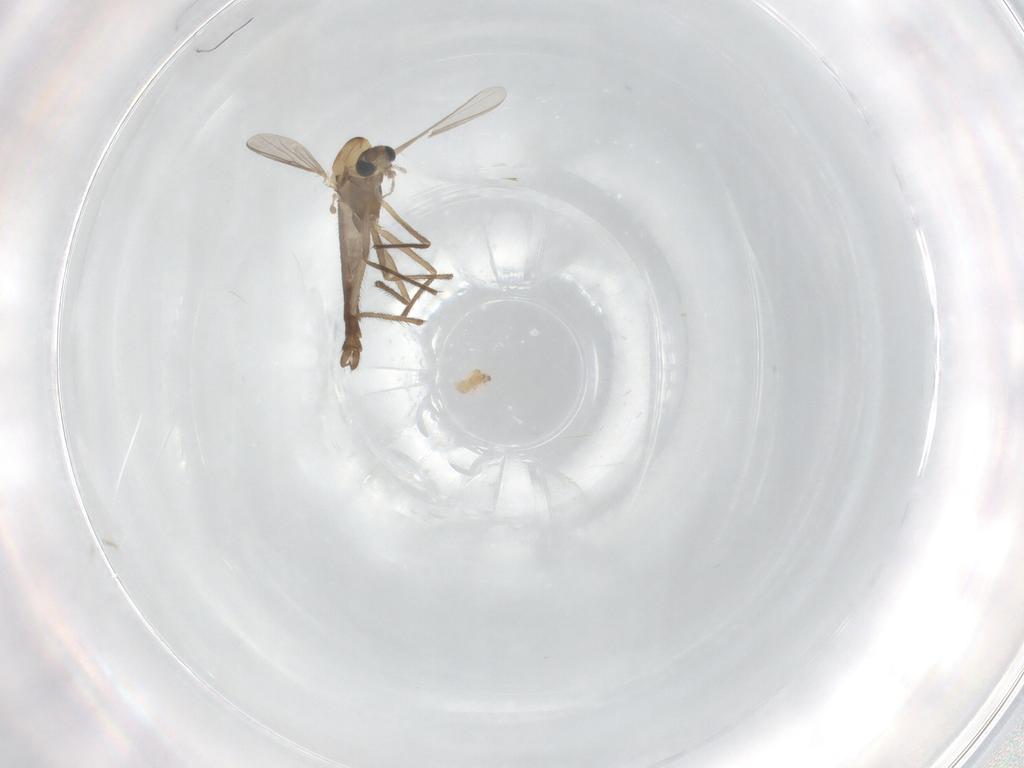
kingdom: Animalia
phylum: Arthropoda
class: Insecta
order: Diptera
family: Chironomidae
